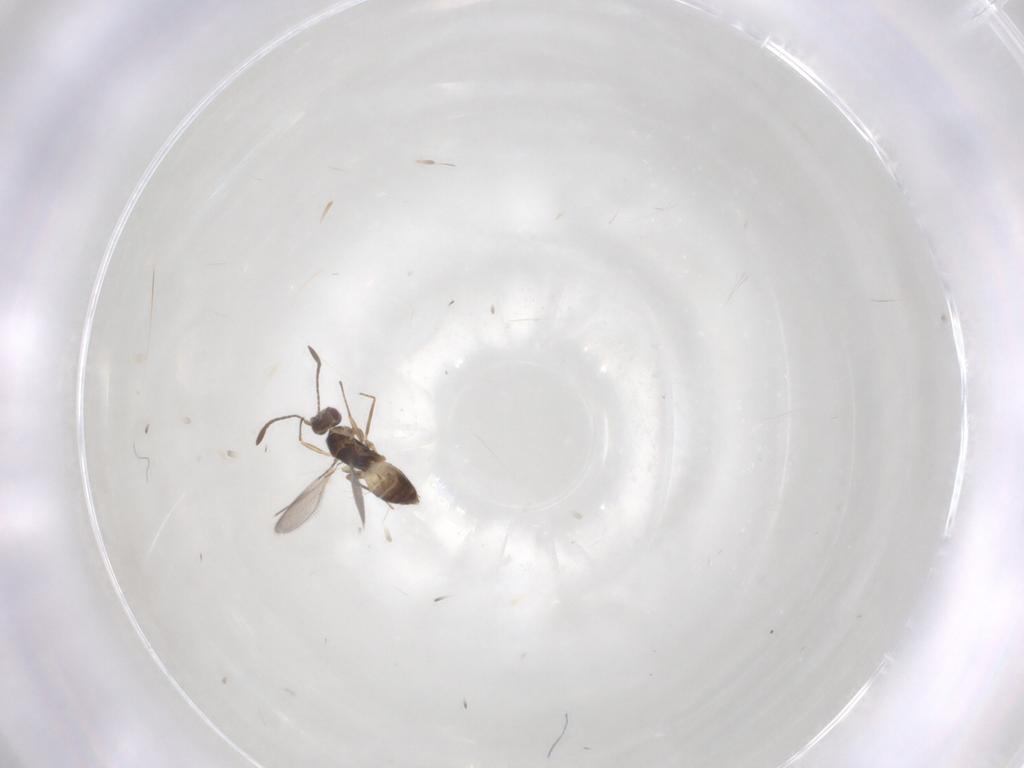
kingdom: Animalia
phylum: Arthropoda
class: Insecta
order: Hymenoptera
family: Mymaridae
